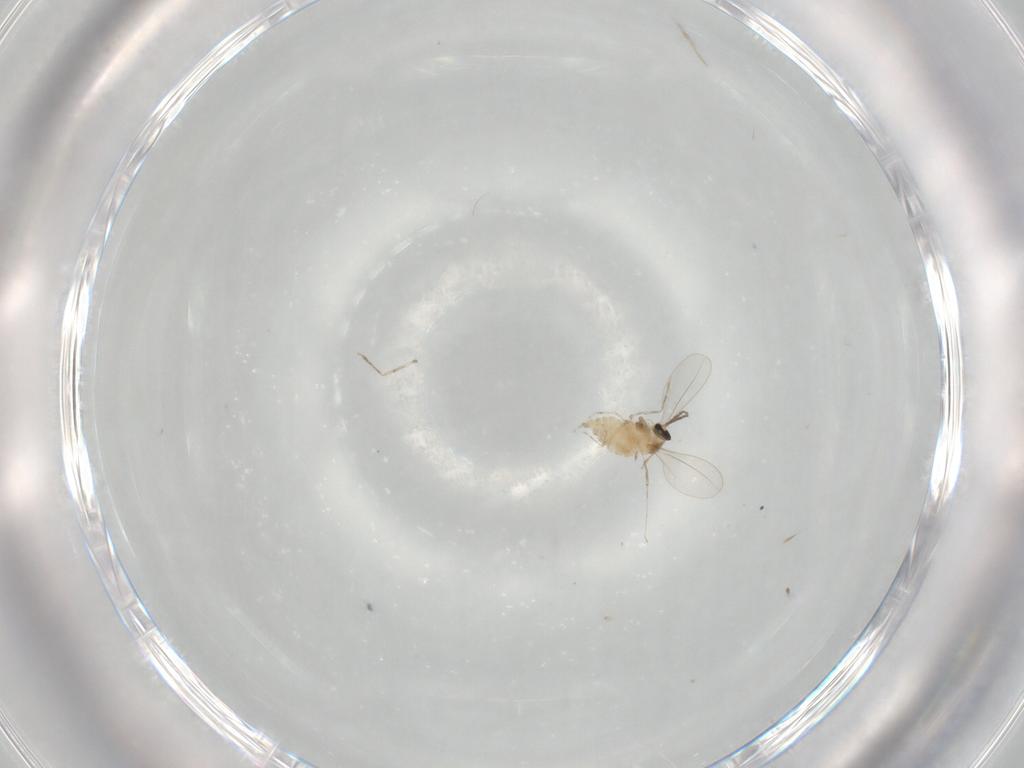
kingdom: Animalia
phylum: Arthropoda
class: Insecta
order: Diptera
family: Cecidomyiidae
